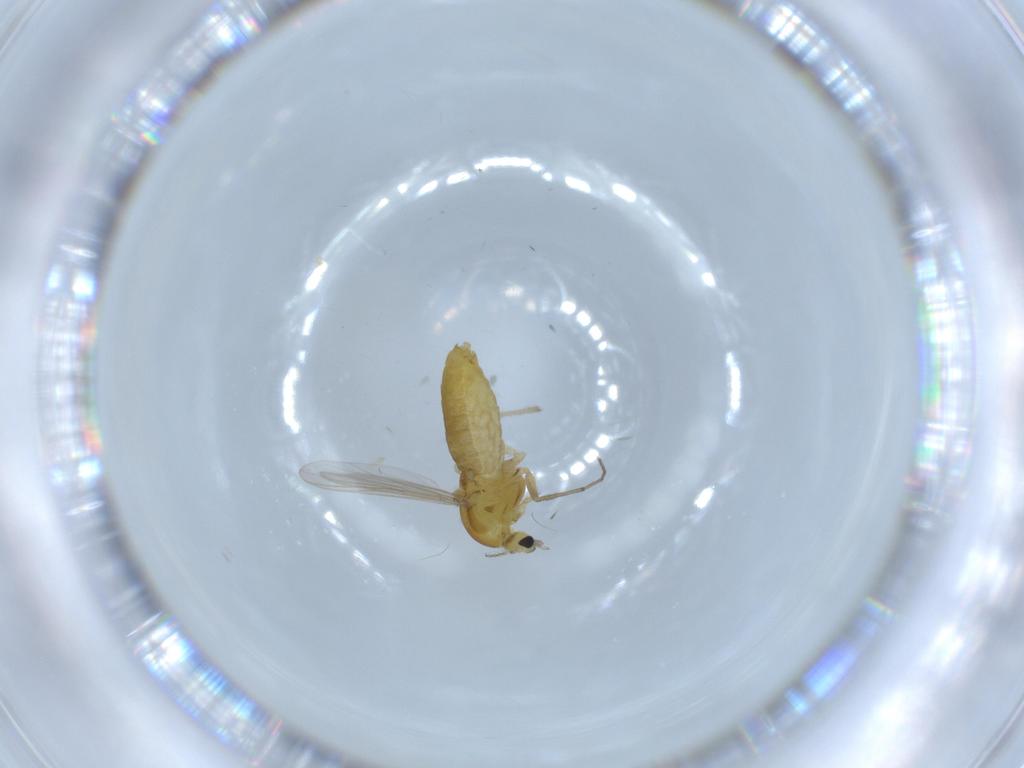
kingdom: Animalia
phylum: Arthropoda
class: Insecta
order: Diptera
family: Chironomidae
